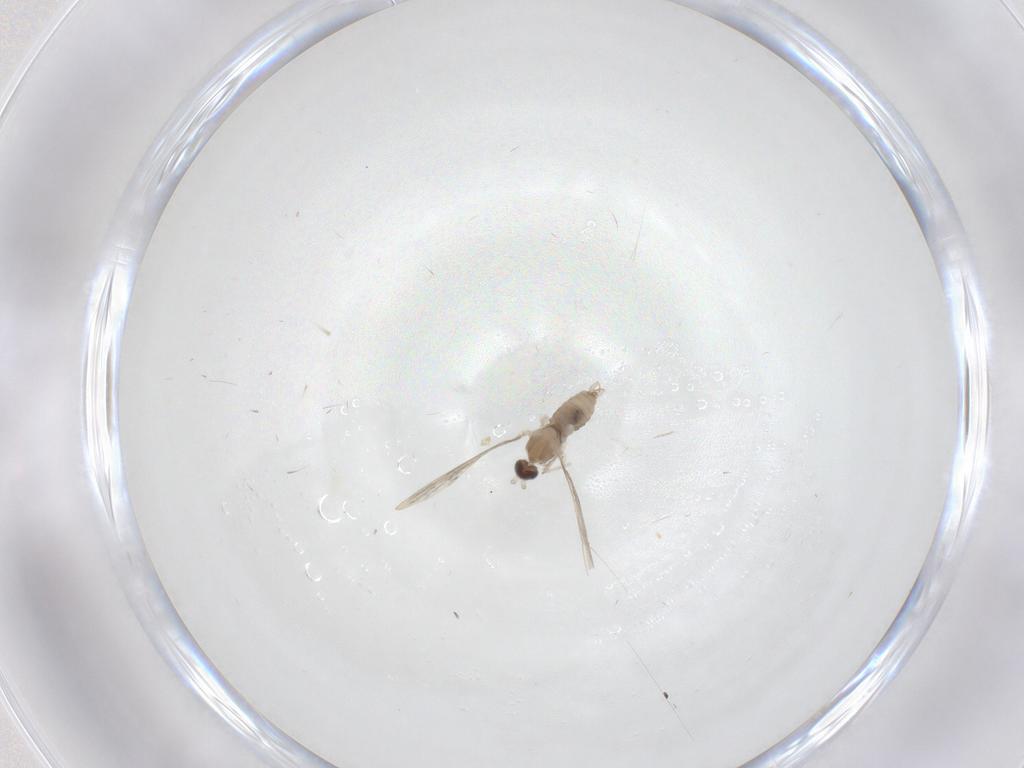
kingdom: Animalia
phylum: Arthropoda
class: Insecta
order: Diptera
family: Cecidomyiidae
